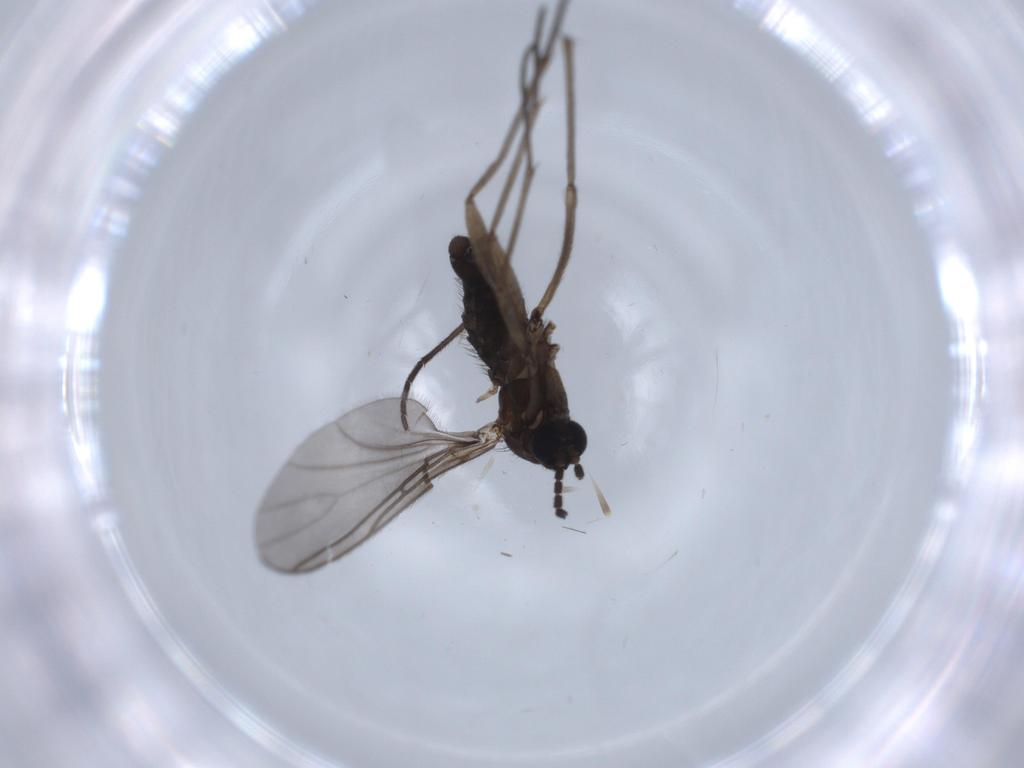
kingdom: Animalia
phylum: Arthropoda
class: Insecta
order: Diptera
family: Sciaridae
